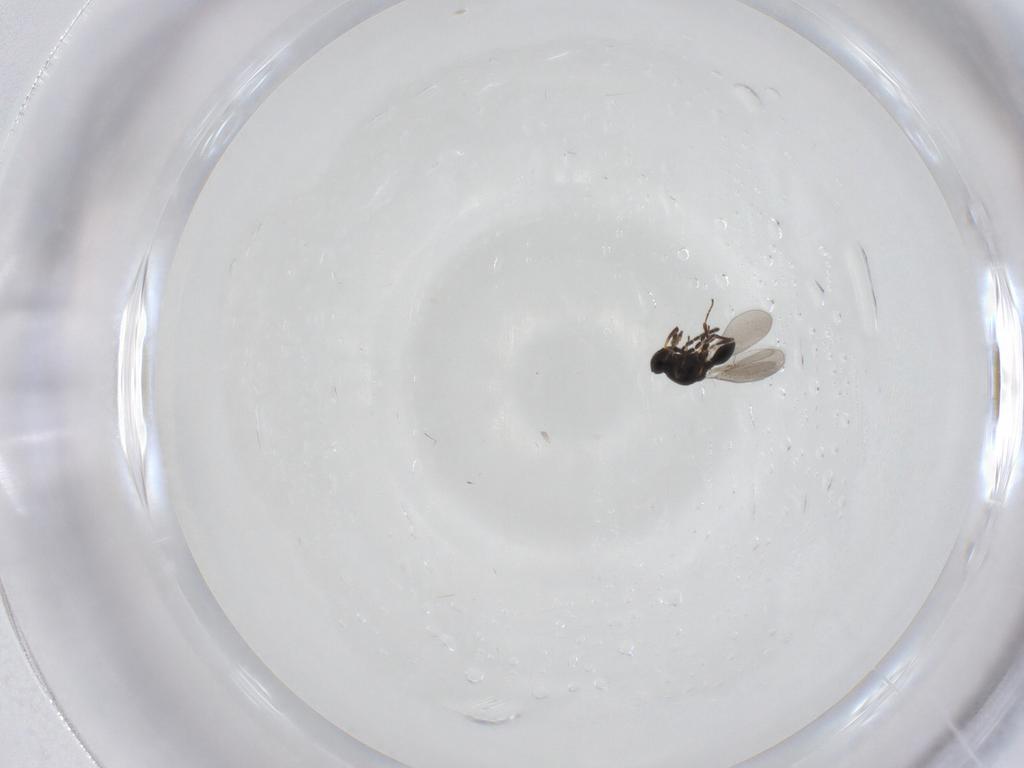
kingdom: Animalia
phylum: Arthropoda
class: Insecta
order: Hymenoptera
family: Platygastridae
